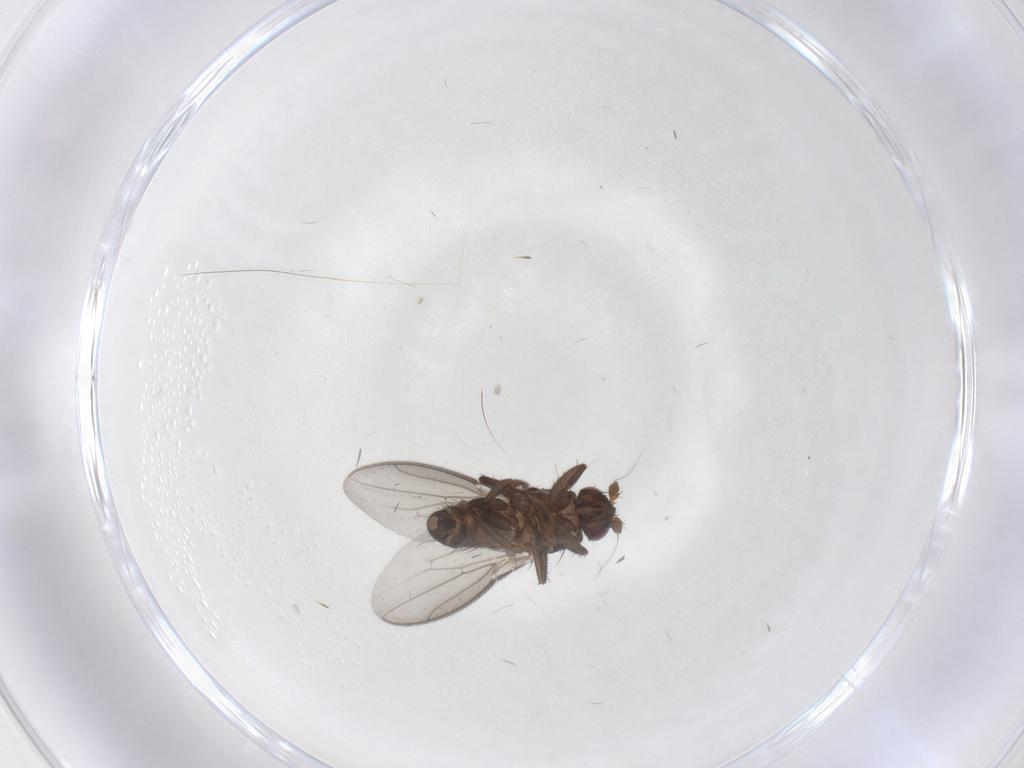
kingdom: Animalia
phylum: Arthropoda
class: Insecta
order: Diptera
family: Sphaeroceridae
